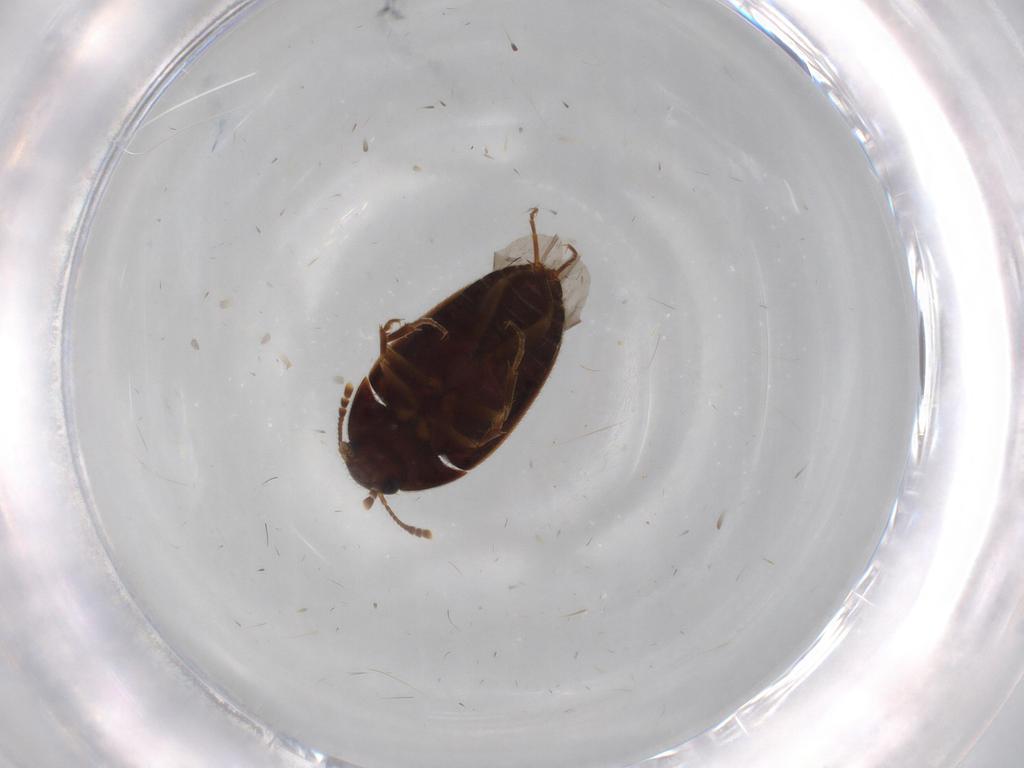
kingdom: Animalia
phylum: Arthropoda
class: Insecta
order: Coleoptera
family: Mycetophagidae
